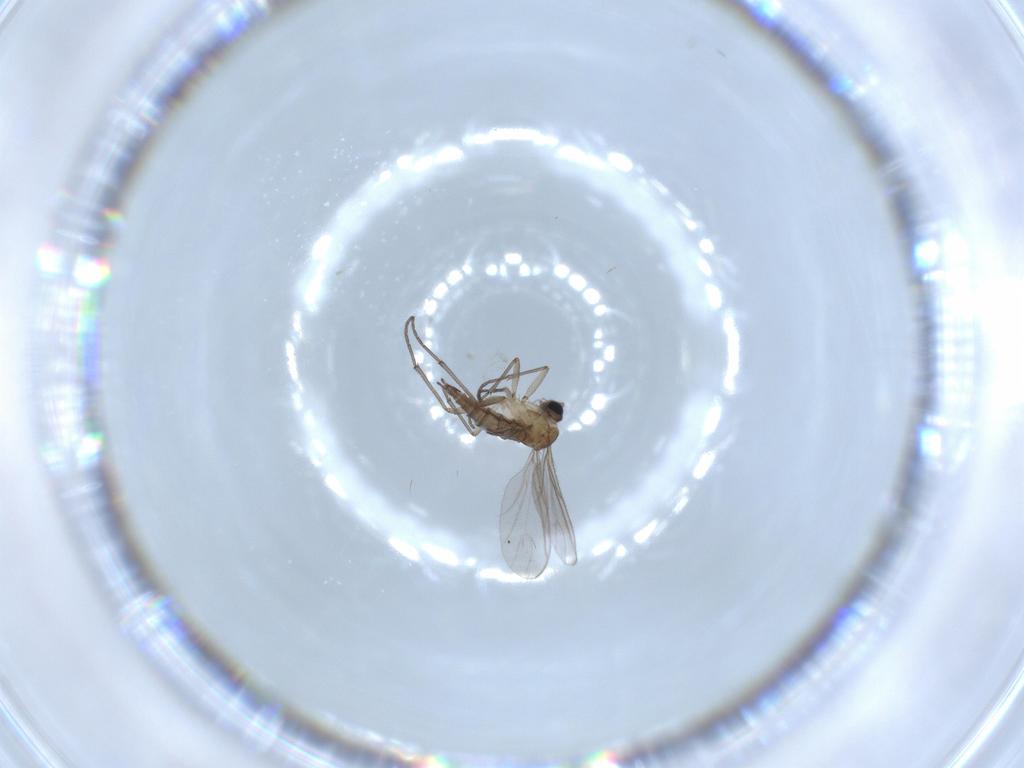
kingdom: Animalia
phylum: Arthropoda
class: Insecta
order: Diptera
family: Sciaridae
